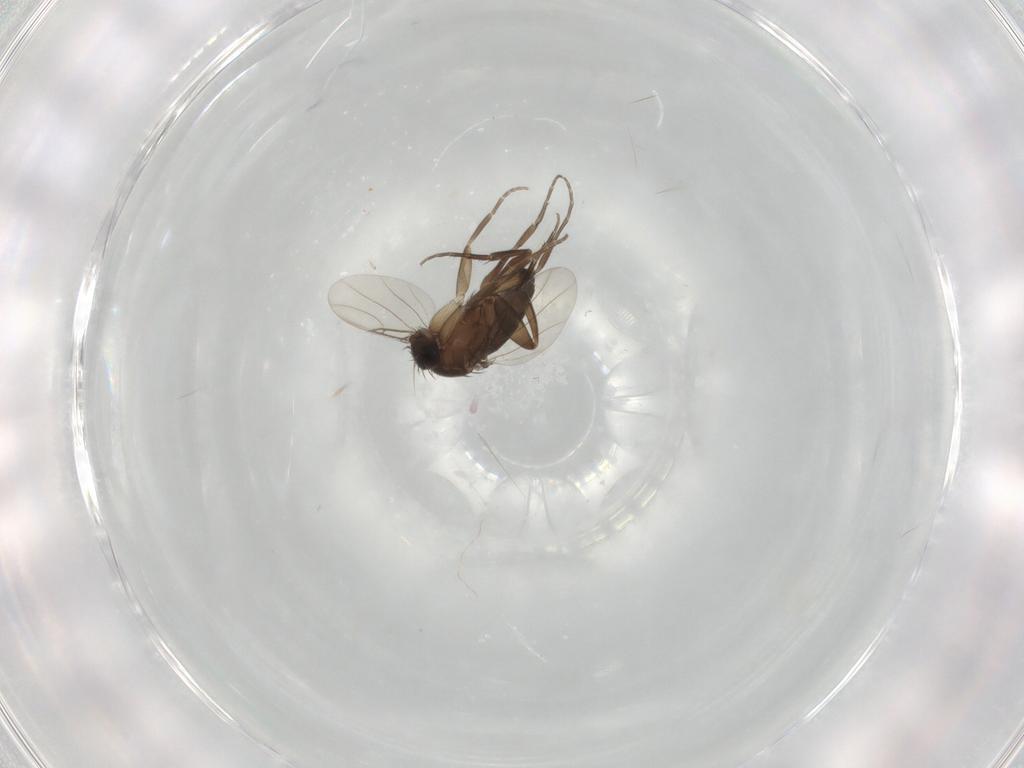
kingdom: Animalia
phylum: Arthropoda
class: Insecta
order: Diptera
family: Phoridae
